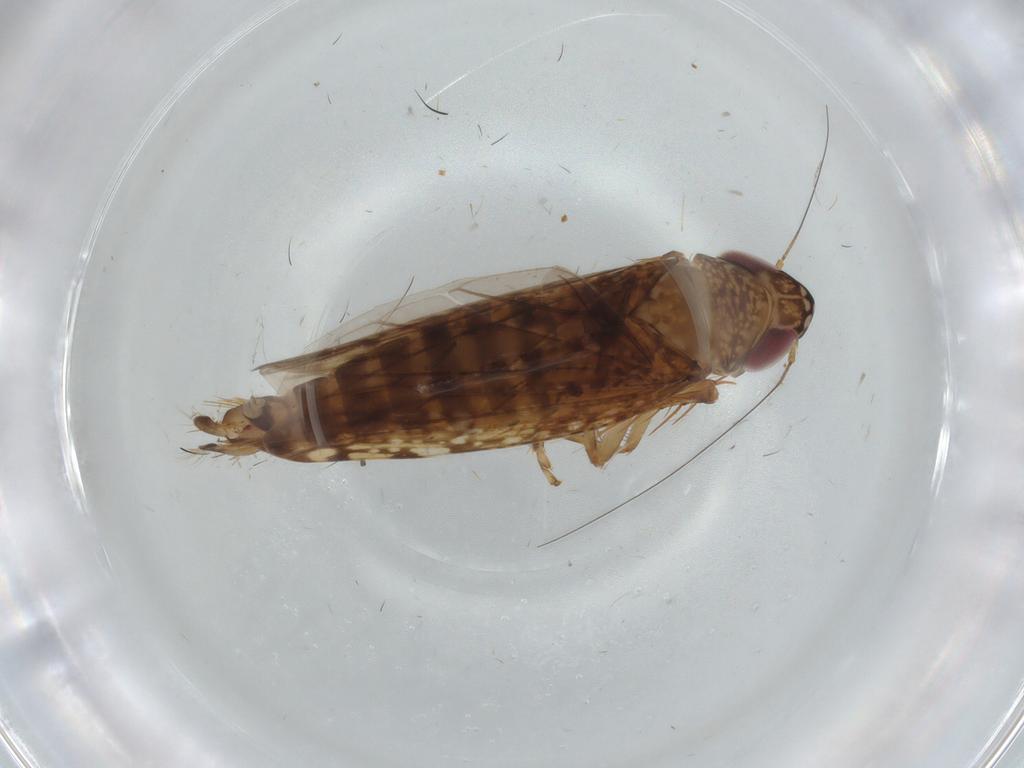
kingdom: Animalia
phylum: Arthropoda
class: Insecta
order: Hemiptera
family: Cicadellidae
